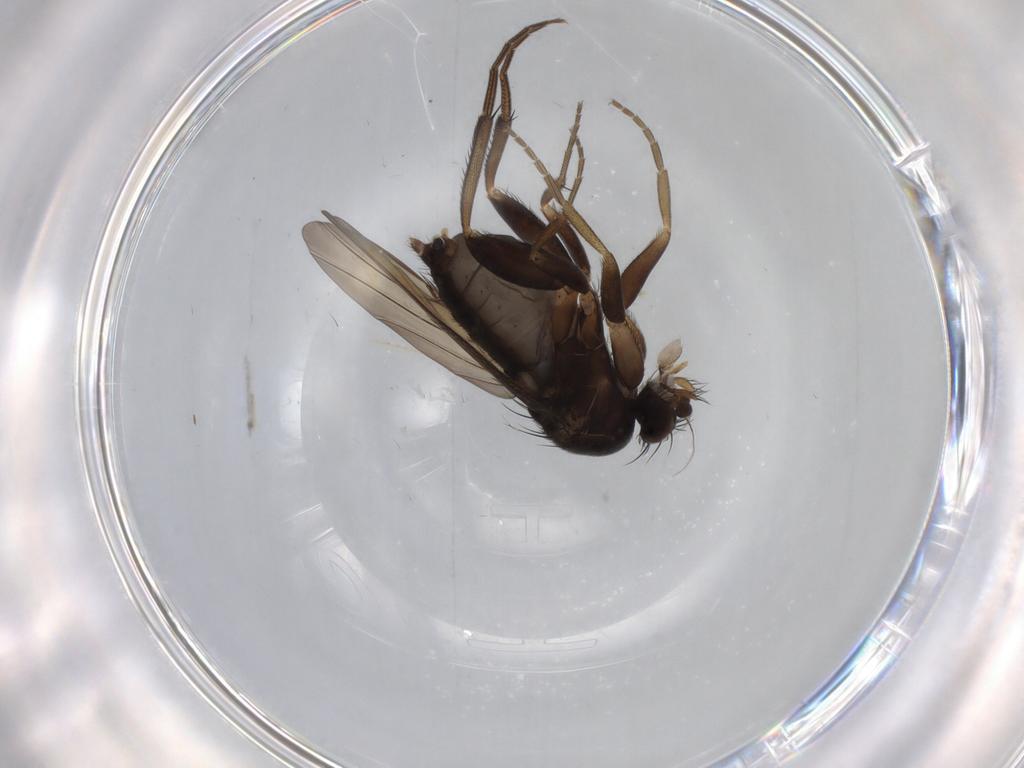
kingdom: Animalia
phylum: Arthropoda
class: Insecta
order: Diptera
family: Phoridae
